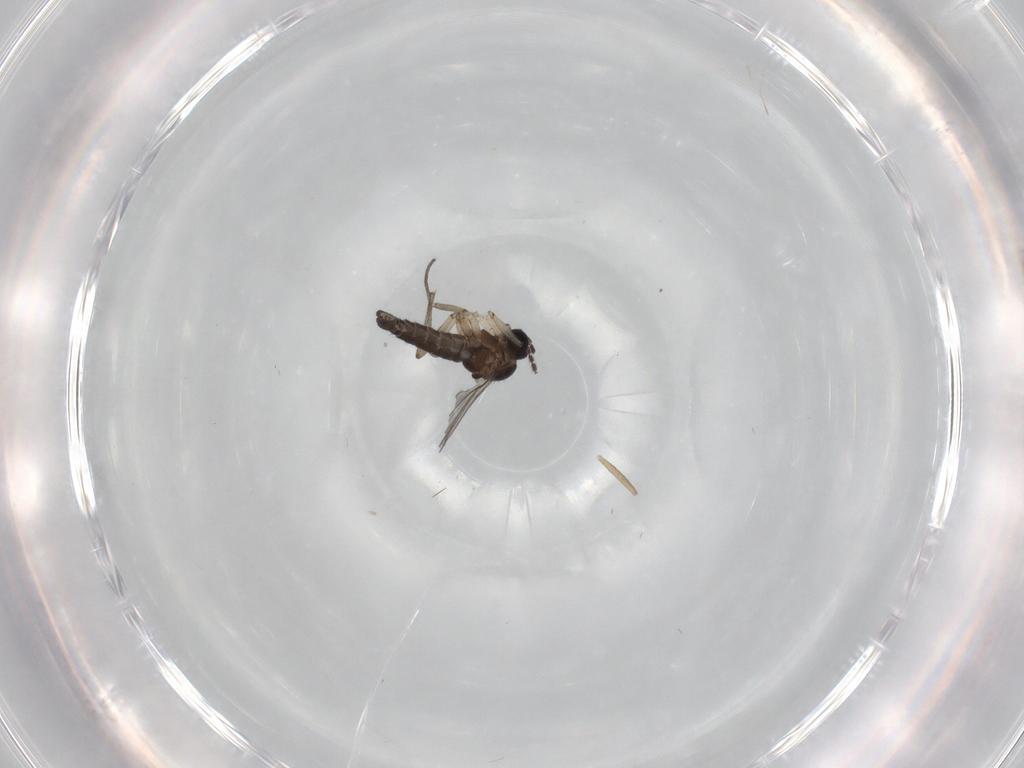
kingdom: Animalia
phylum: Arthropoda
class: Insecta
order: Diptera
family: Sciaridae
